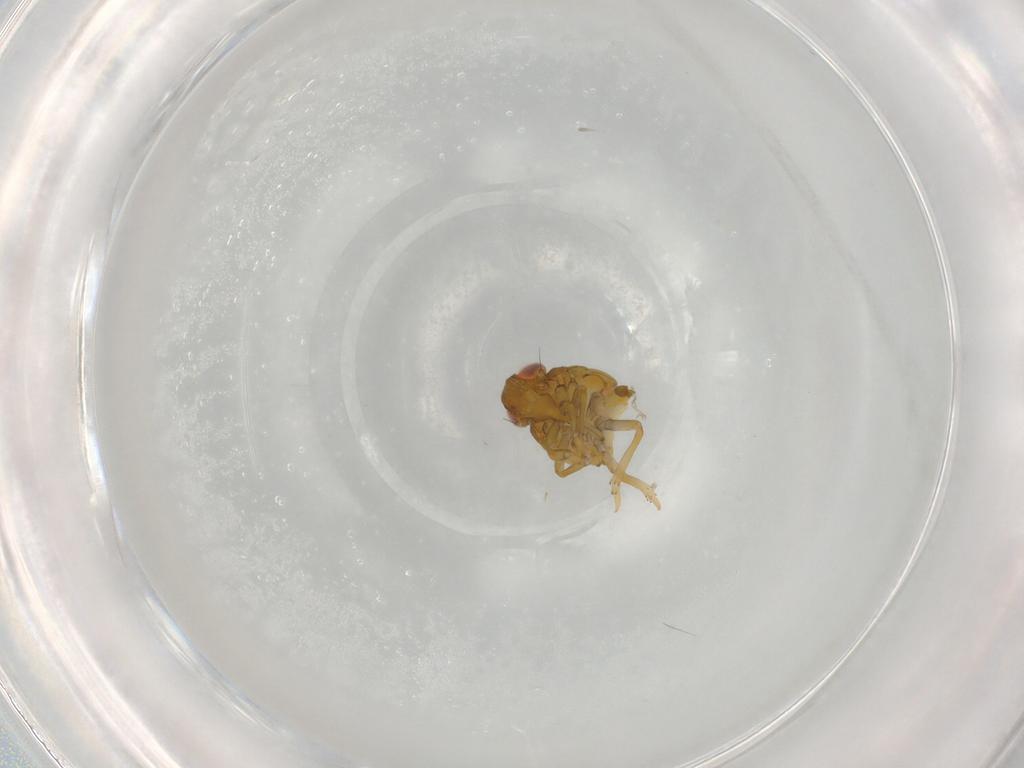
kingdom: Animalia
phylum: Arthropoda
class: Insecta
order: Hemiptera
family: Issidae
